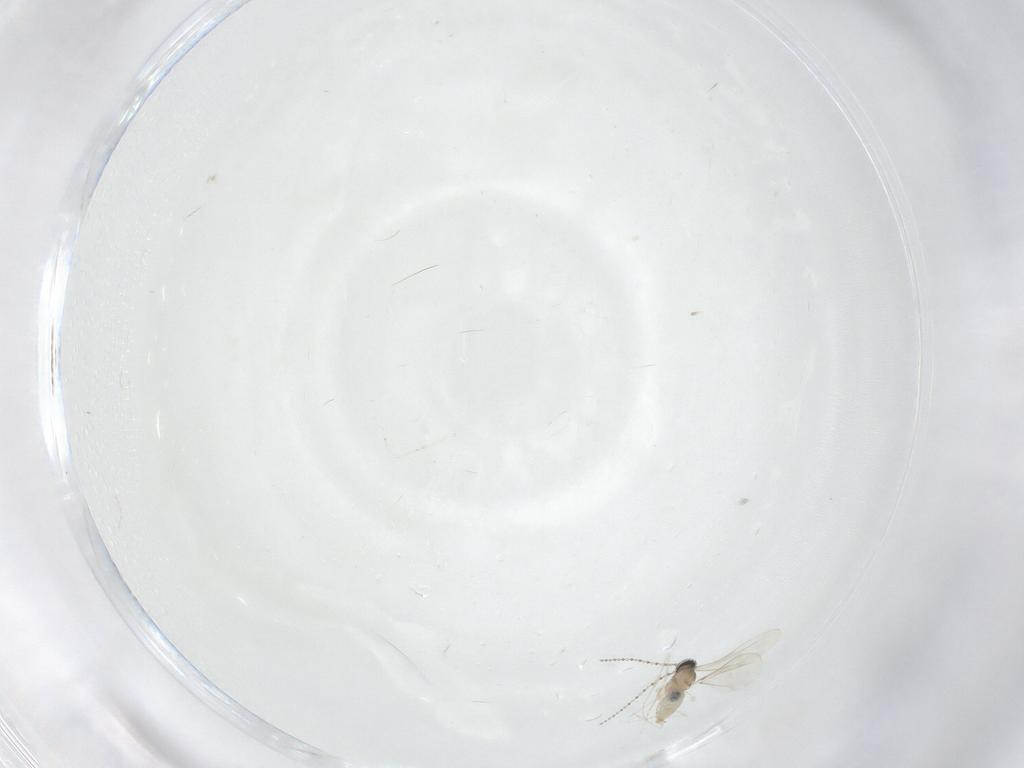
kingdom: Animalia
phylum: Arthropoda
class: Insecta
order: Diptera
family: Cecidomyiidae
